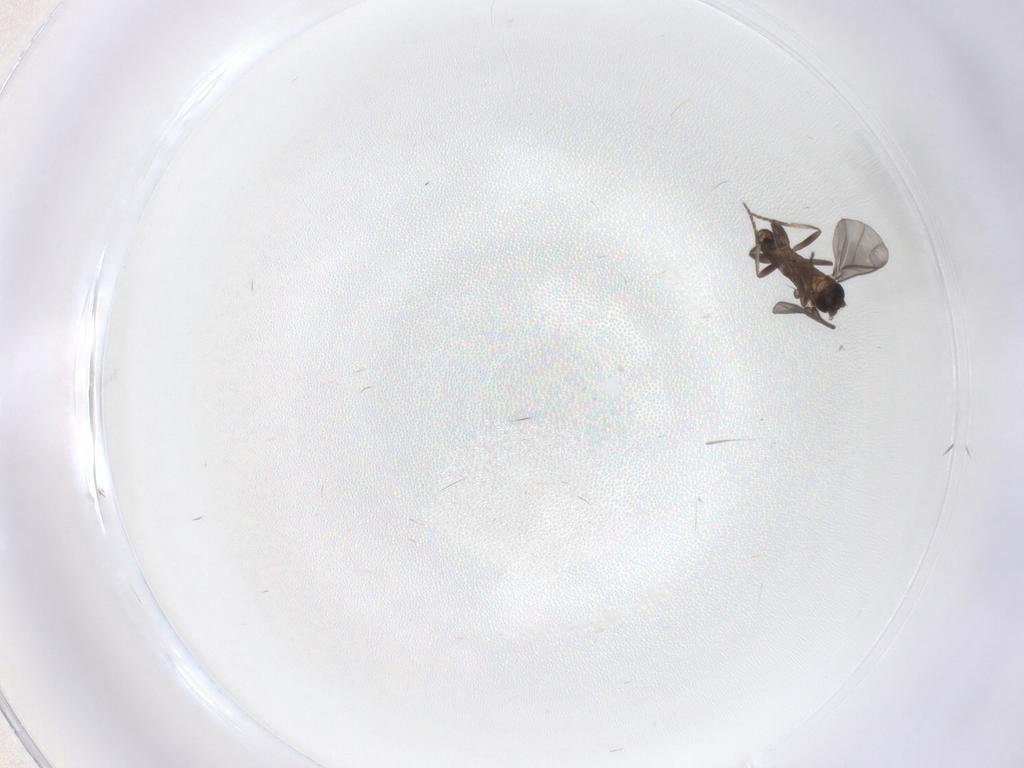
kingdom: Animalia
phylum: Arthropoda
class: Insecta
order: Diptera
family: Phoridae
